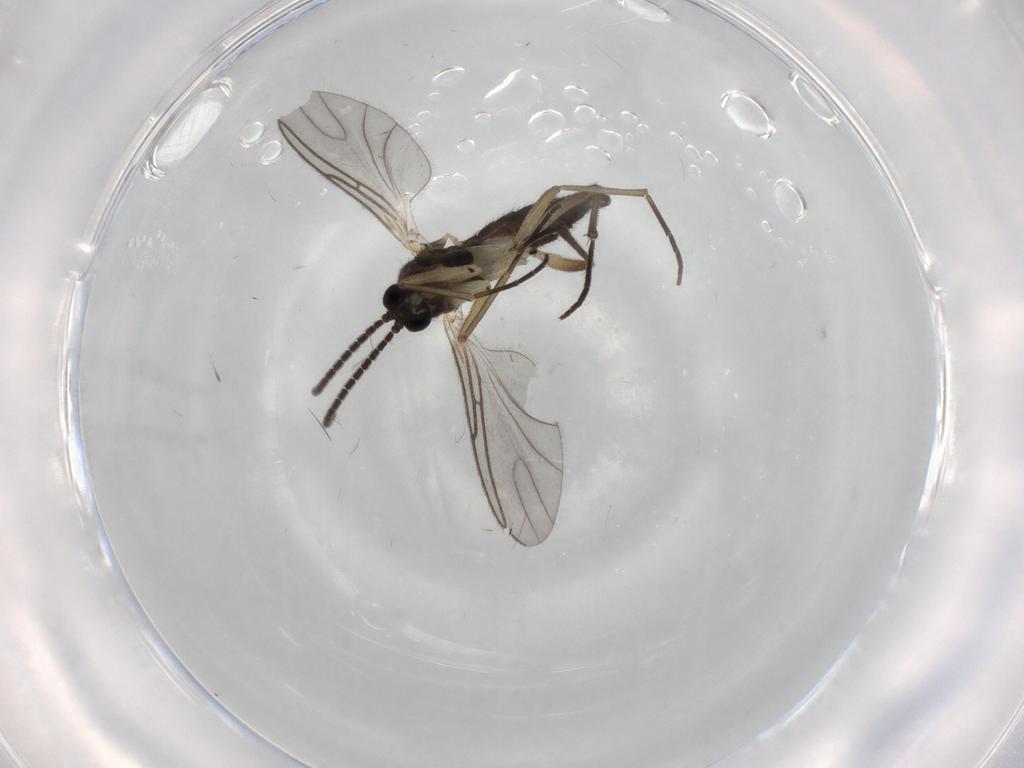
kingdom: Animalia
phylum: Arthropoda
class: Insecta
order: Diptera
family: Sciaridae
